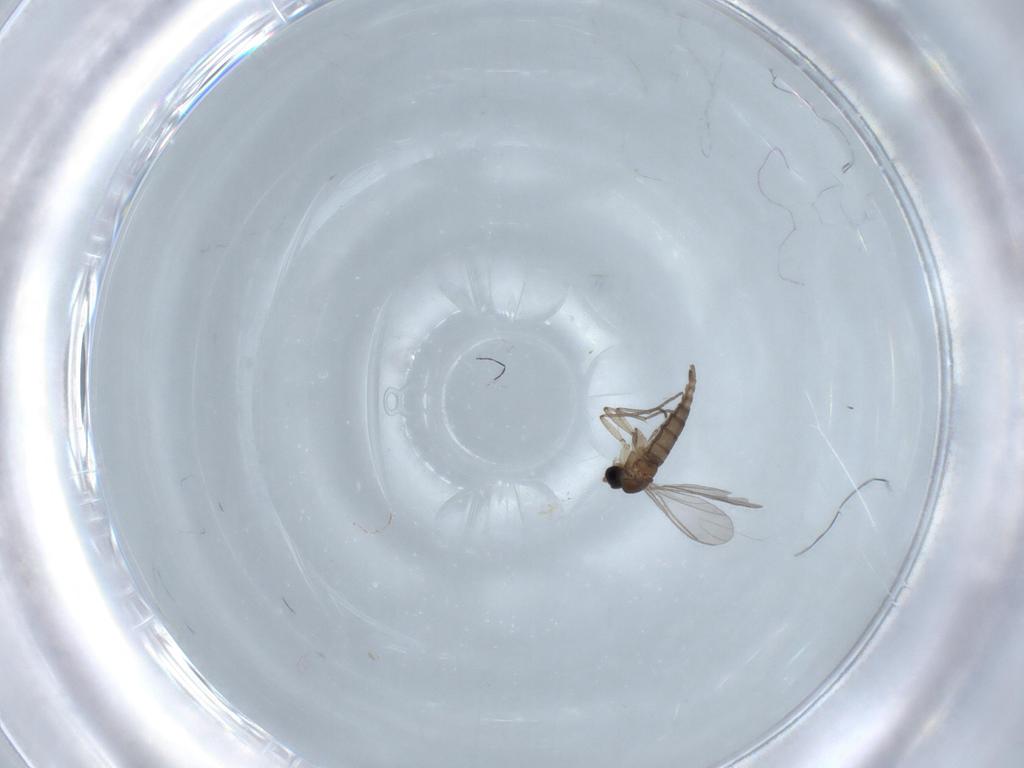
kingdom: Animalia
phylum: Arthropoda
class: Insecta
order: Diptera
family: Sciaridae
